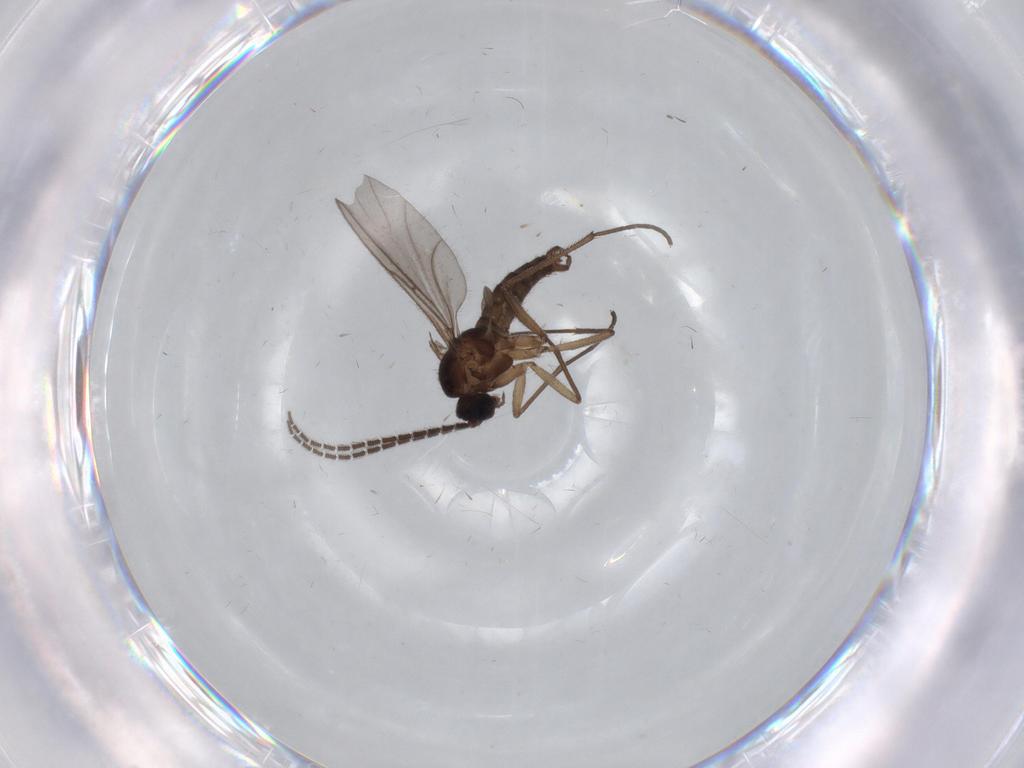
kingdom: Animalia
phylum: Arthropoda
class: Insecta
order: Diptera
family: Sciaridae
